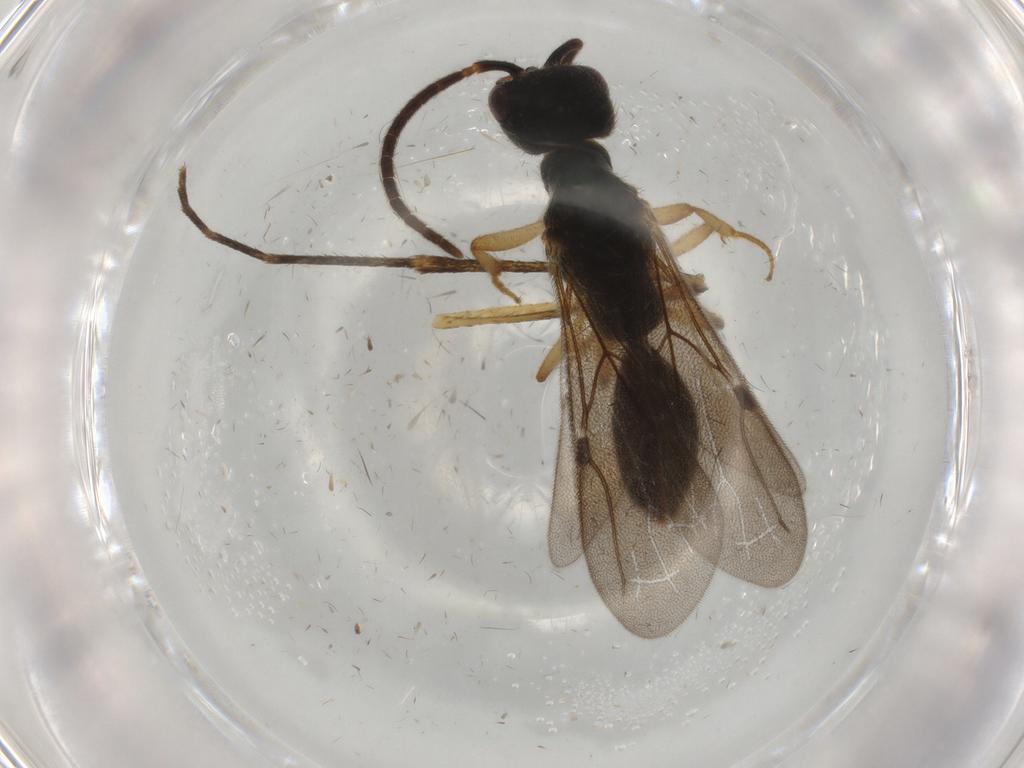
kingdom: Animalia
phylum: Arthropoda
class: Insecta
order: Hymenoptera
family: Bethylidae
